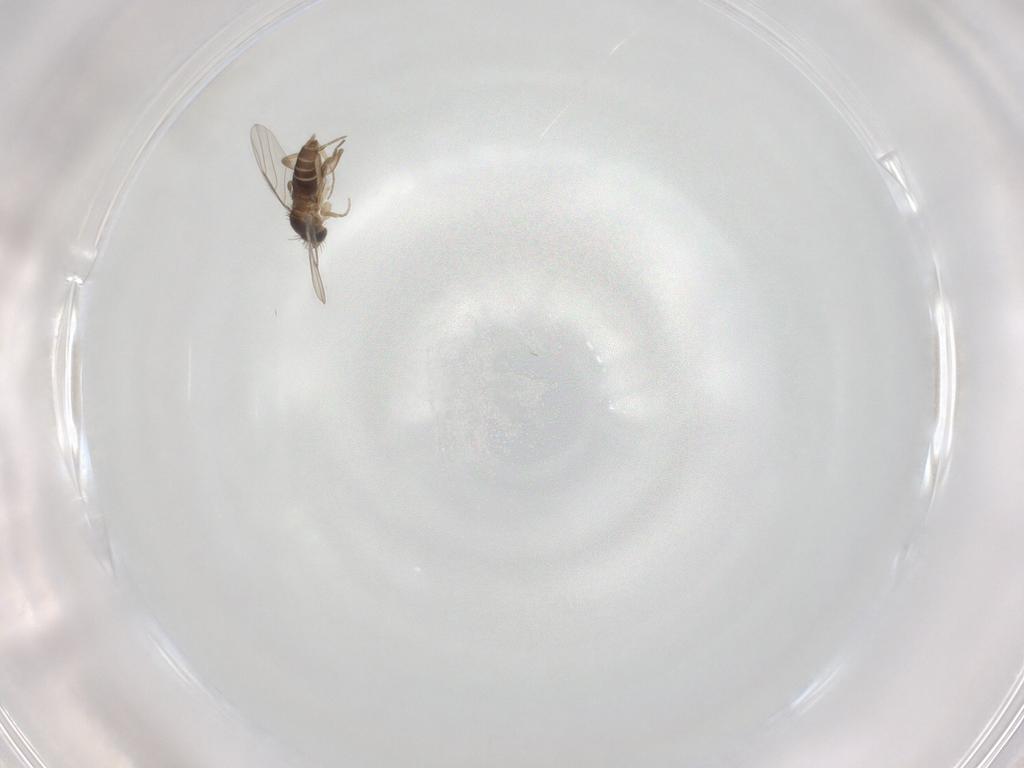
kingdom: Animalia
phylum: Arthropoda
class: Insecta
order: Diptera
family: Phoridae
